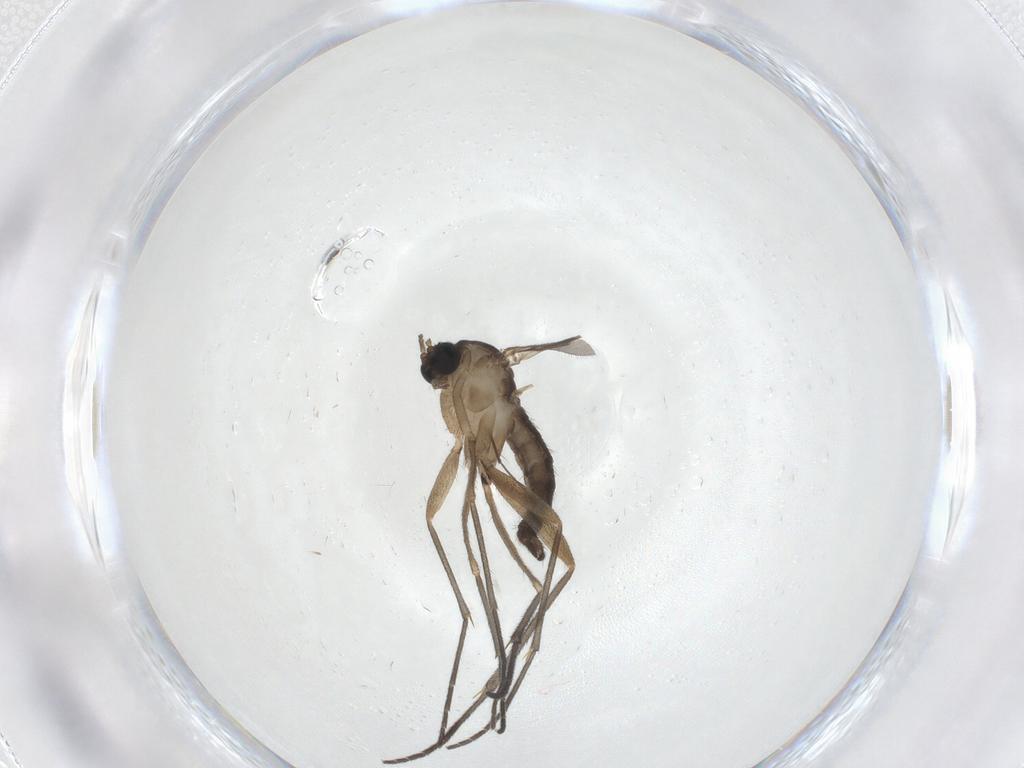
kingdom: Animalia
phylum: Arthropoda
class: Insecta
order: Diptera
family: Sciaridae
